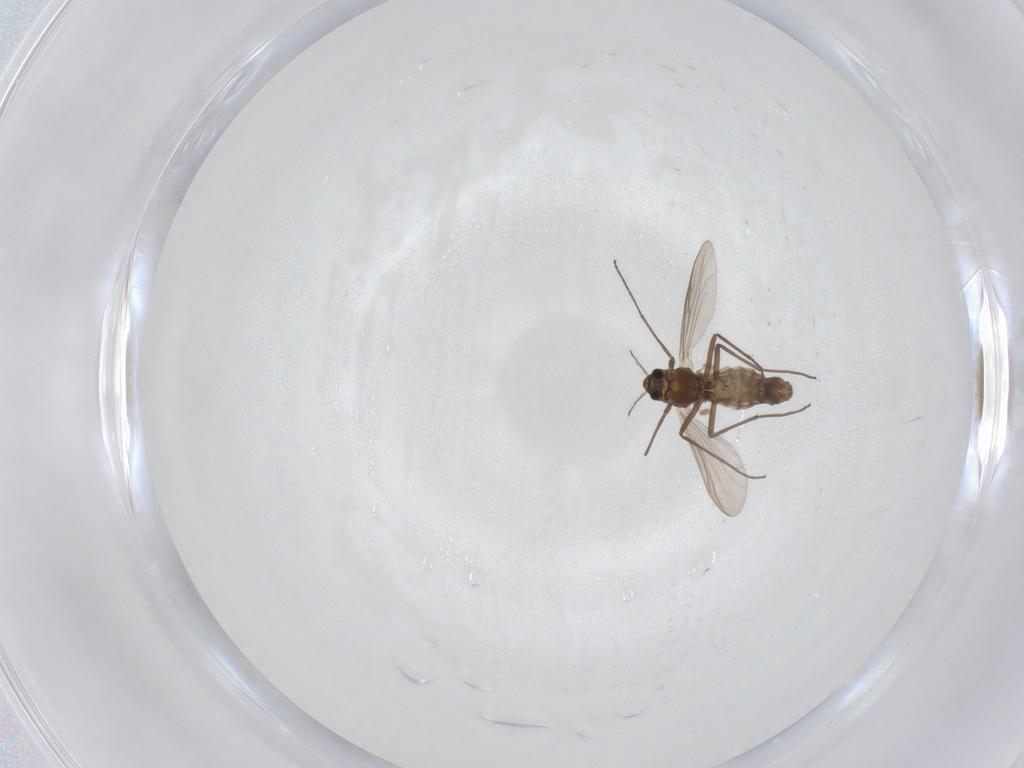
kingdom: Animalia
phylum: Arthropoda
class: Insecta
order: Diptera
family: Chironomidae
